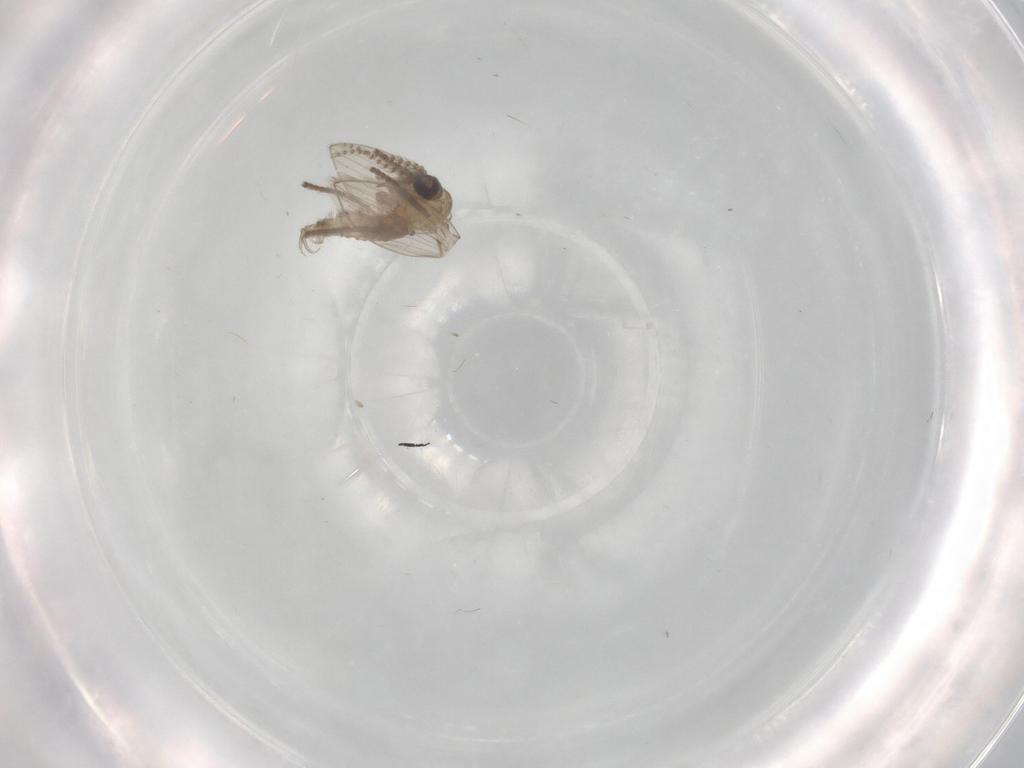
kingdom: Animalia
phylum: Arthropoda
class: Insecta
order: Diptera
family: Psychodidae
